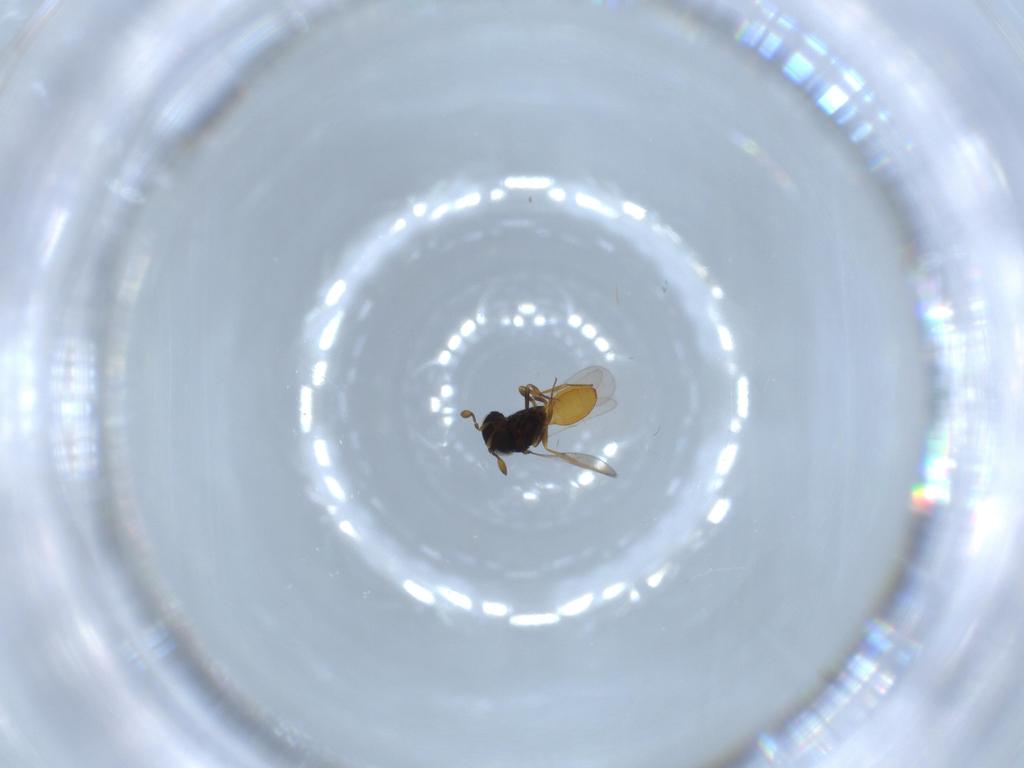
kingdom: Animalia
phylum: Arthropoda
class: Insecta
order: Hymenoptera
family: Scelionidae
